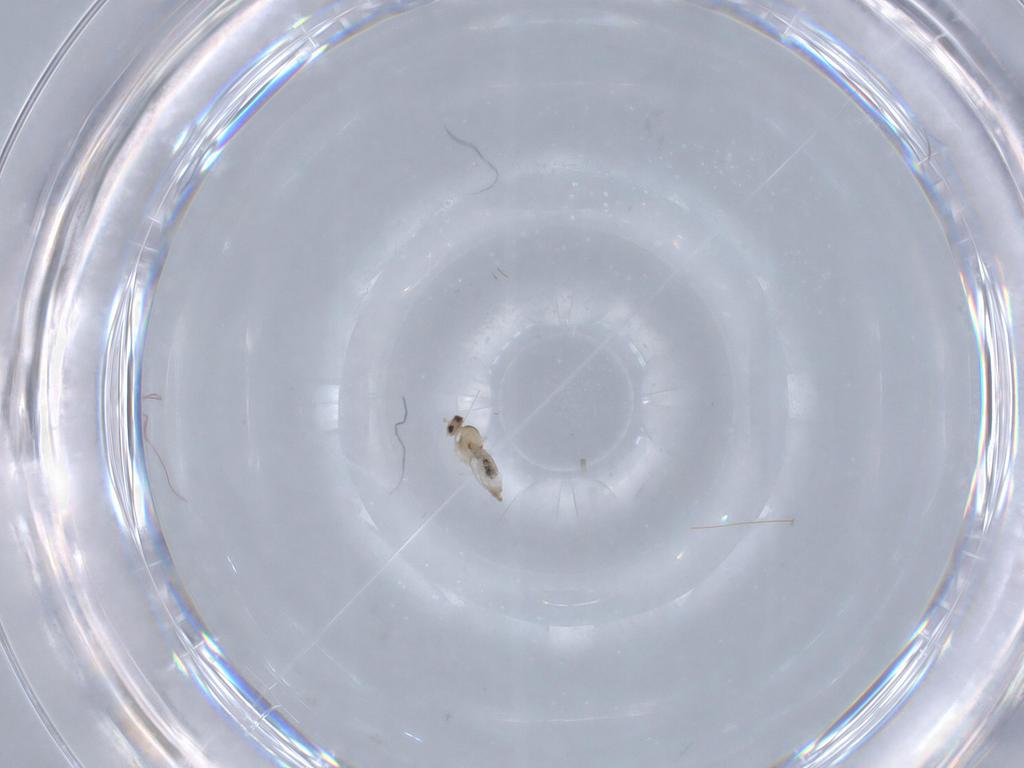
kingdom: Animalia
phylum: Arthropoda
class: Insecta
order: Diptera
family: Cecidomyiidae
